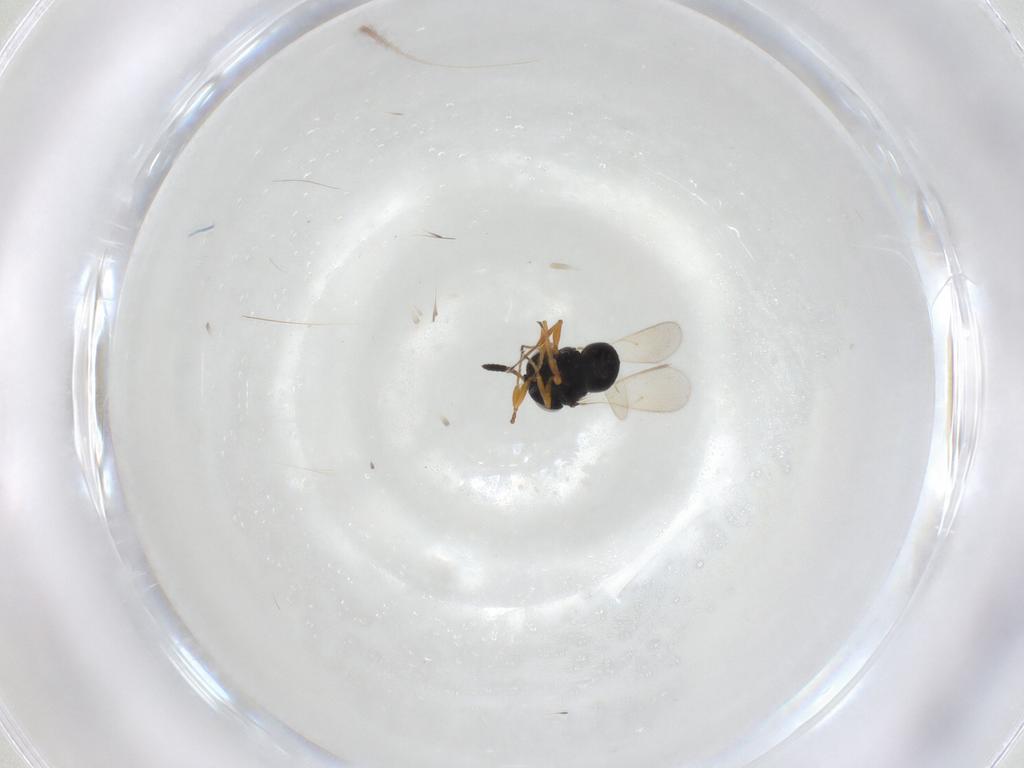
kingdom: Animalia
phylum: Arthropoda
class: Insecta
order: Hymenoptera
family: Scelionidae
